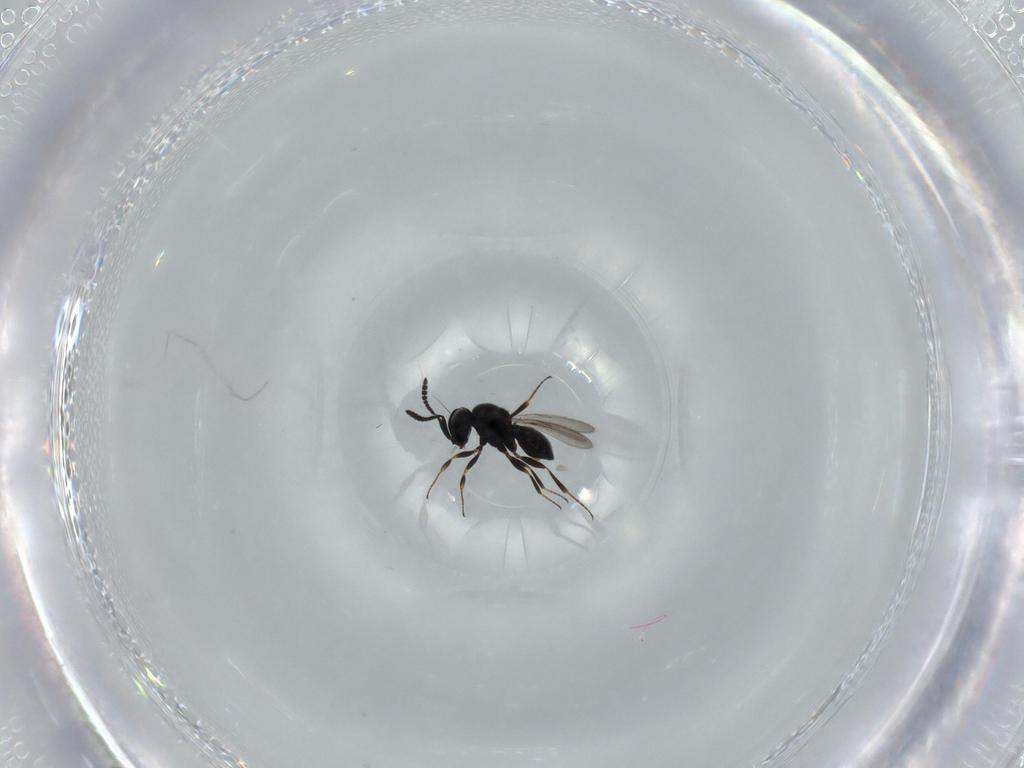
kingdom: Animalia
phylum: Arthropoda
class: Insecta
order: Hymenoptera
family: Scelionidae
